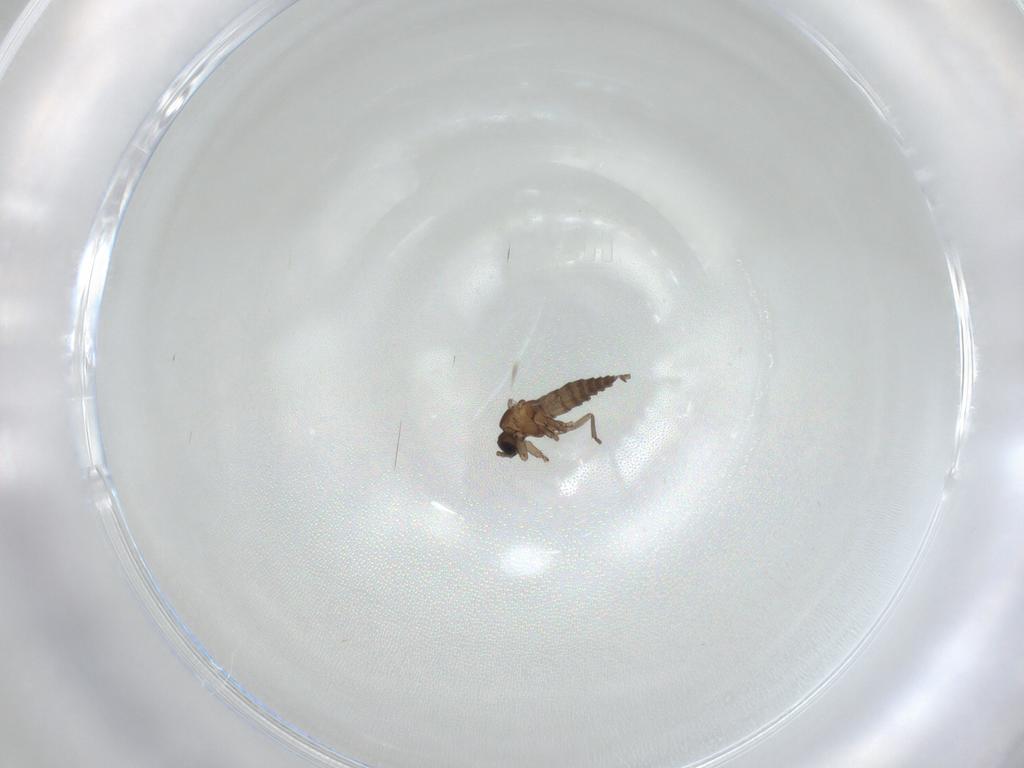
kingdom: Animalia
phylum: Arthropoda
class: Insecta
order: Diptera
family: Sciaridae
